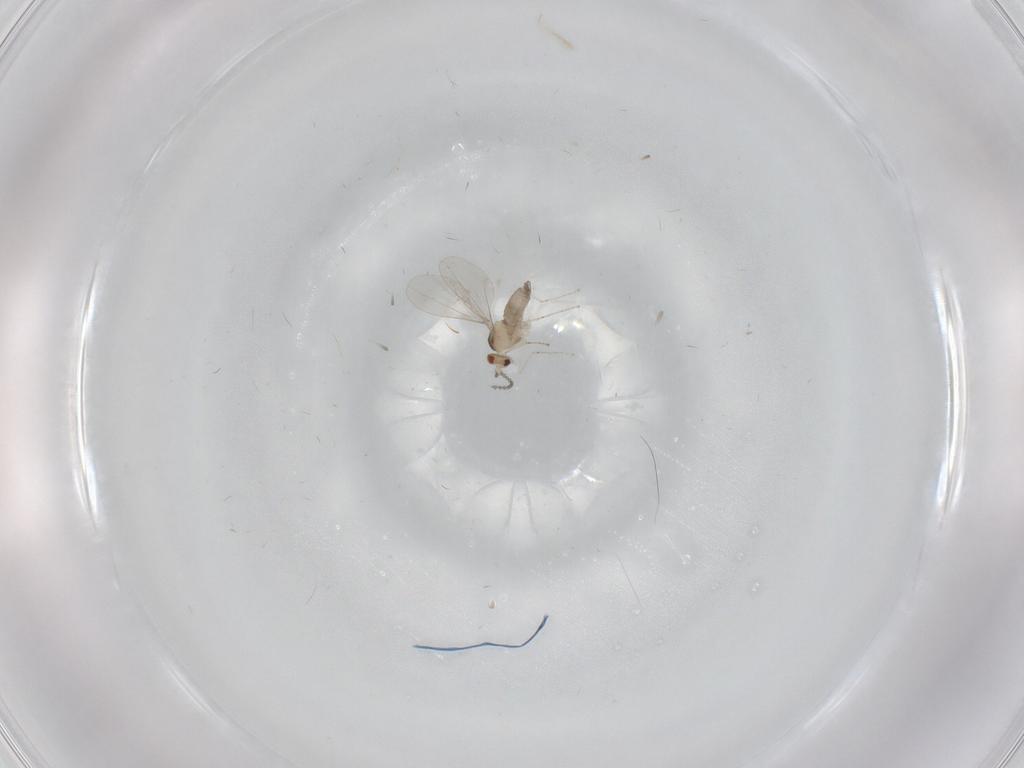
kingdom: Animalia
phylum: Arthropoda
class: Insecta
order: Diptera
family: Cecidomyiidae
